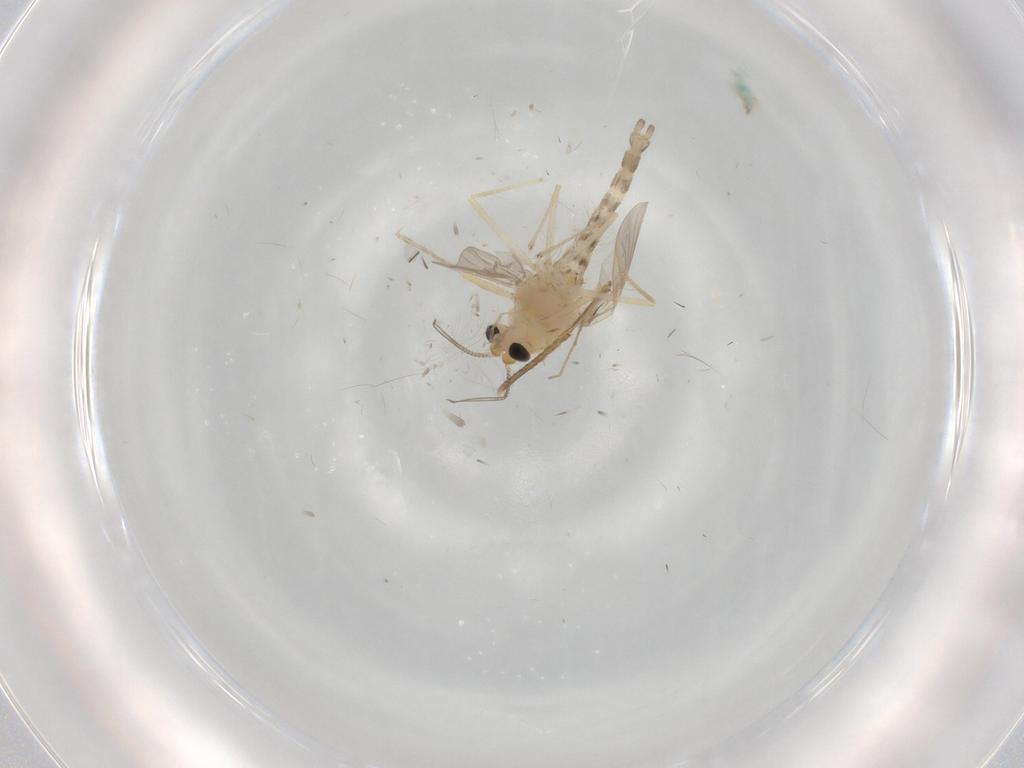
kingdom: Animalia
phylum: Arthropoda
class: Insecta
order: Diptera
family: Chironomidae
